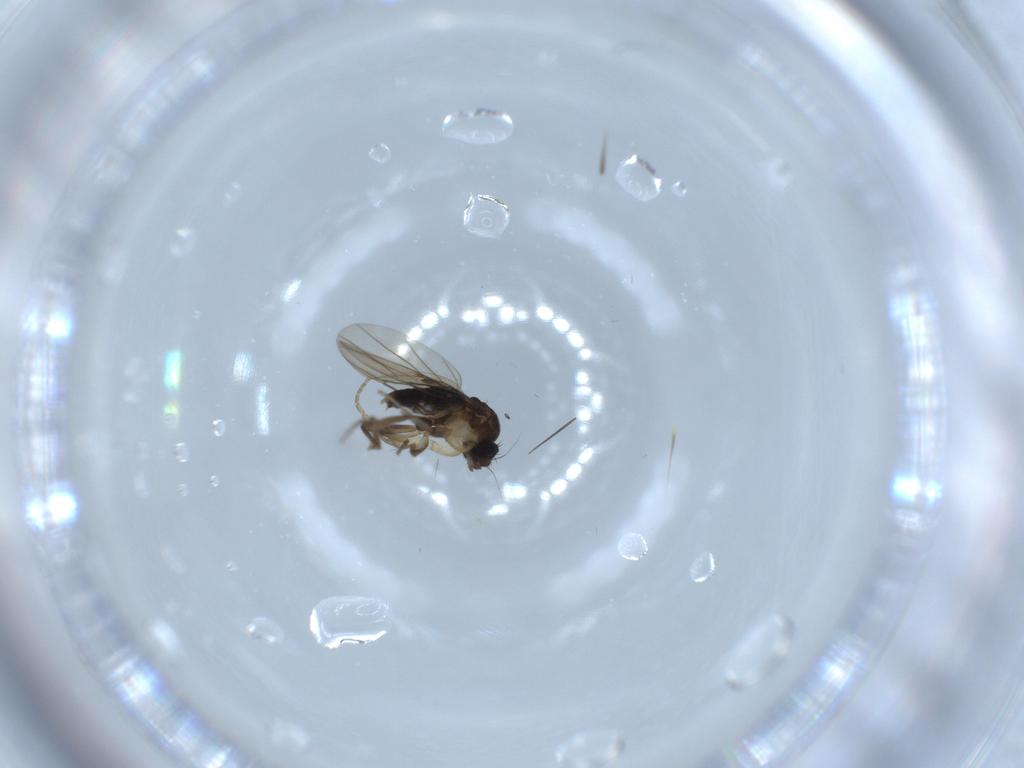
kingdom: Animalia
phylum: Arthropoda
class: Insecta
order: Diptera
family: Phoridae
